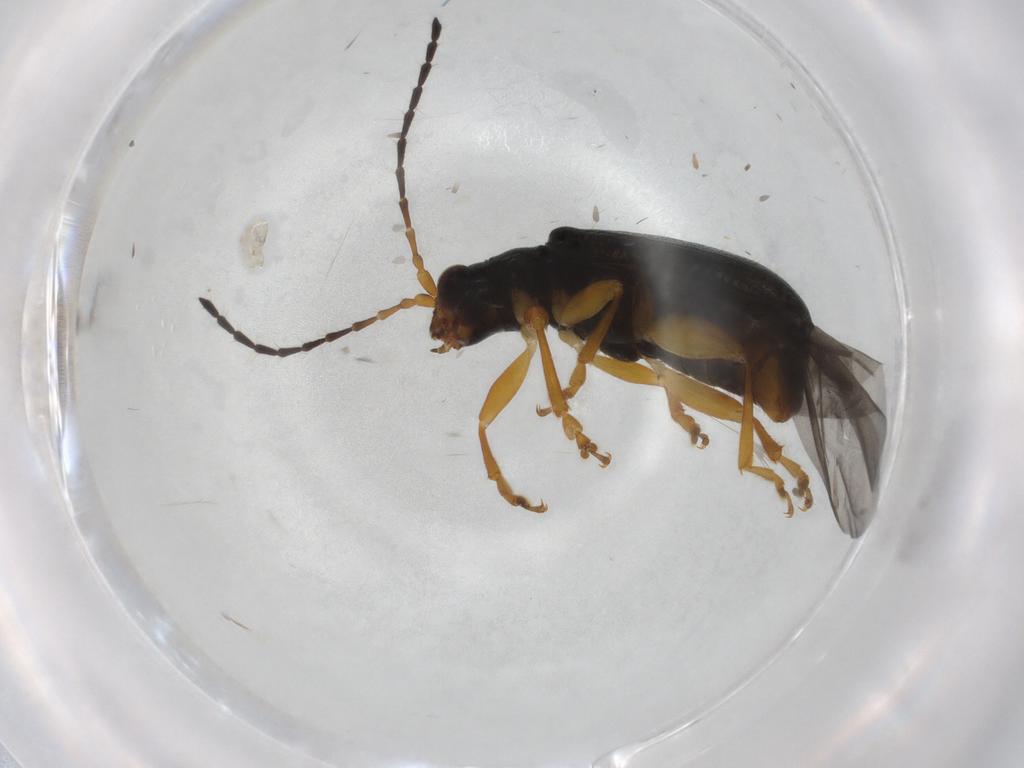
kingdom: Animalia
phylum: Arthropoda
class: Insecta
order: Coleoptera
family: Chrysomelidae
